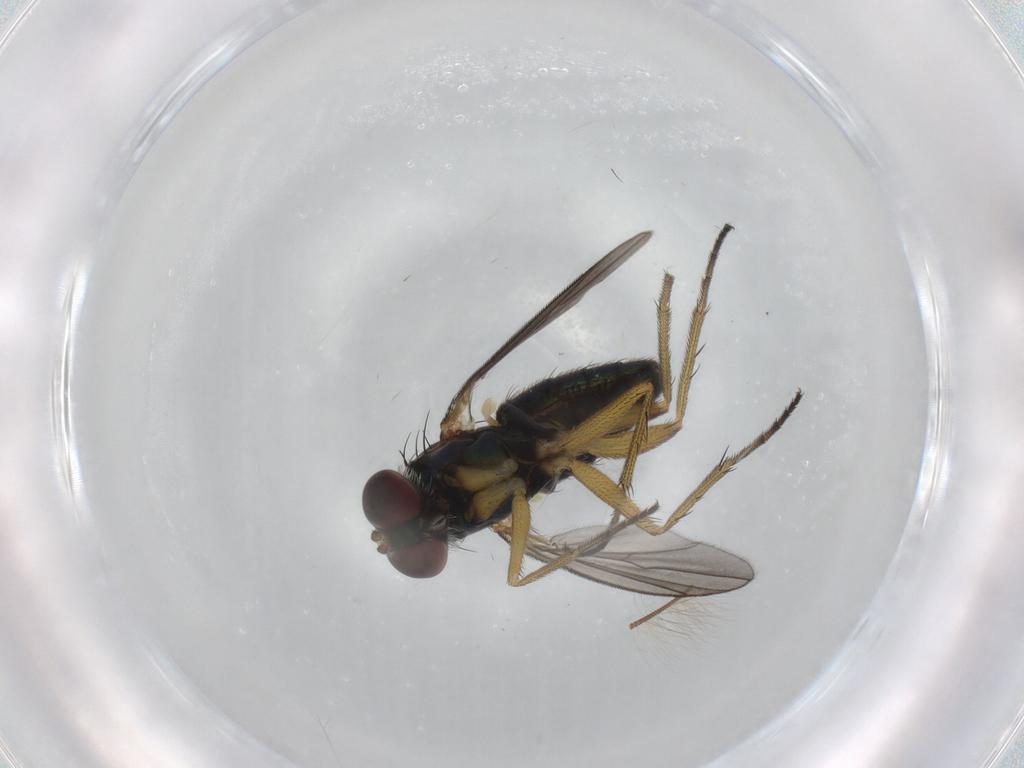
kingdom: Animalia
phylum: Arthropoda
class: Insecta
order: Diptera
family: Dolichopodidae
